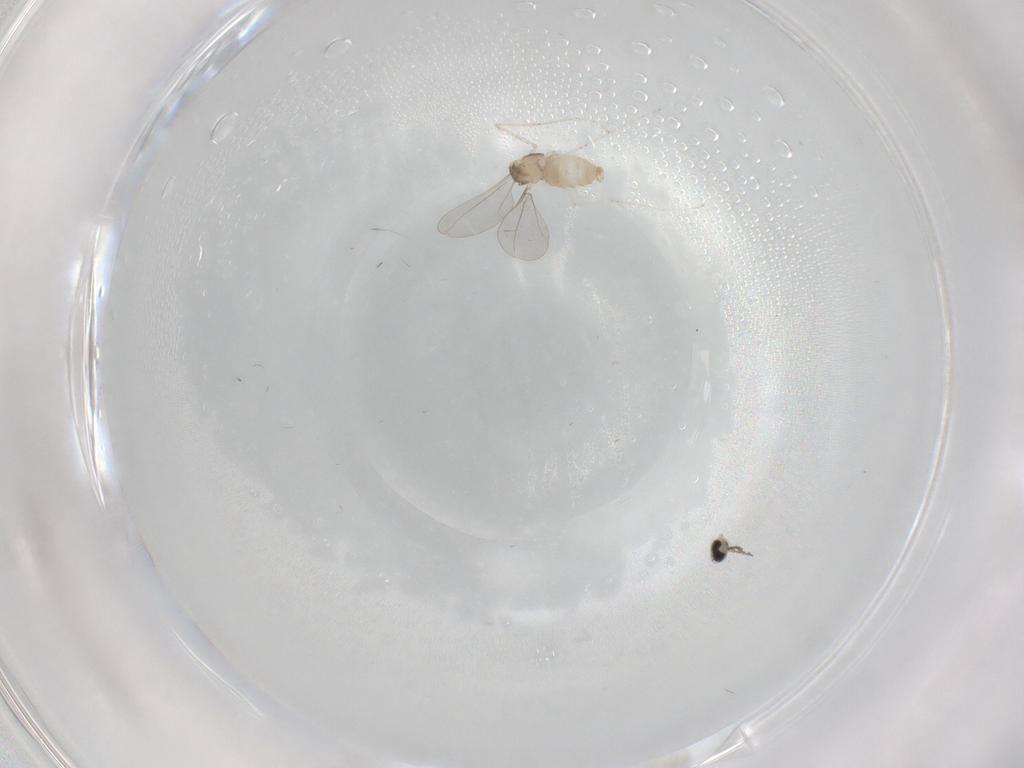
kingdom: Animalia
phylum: Arthropoda
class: Insecta
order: Diptera
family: Cecidomyiidae
